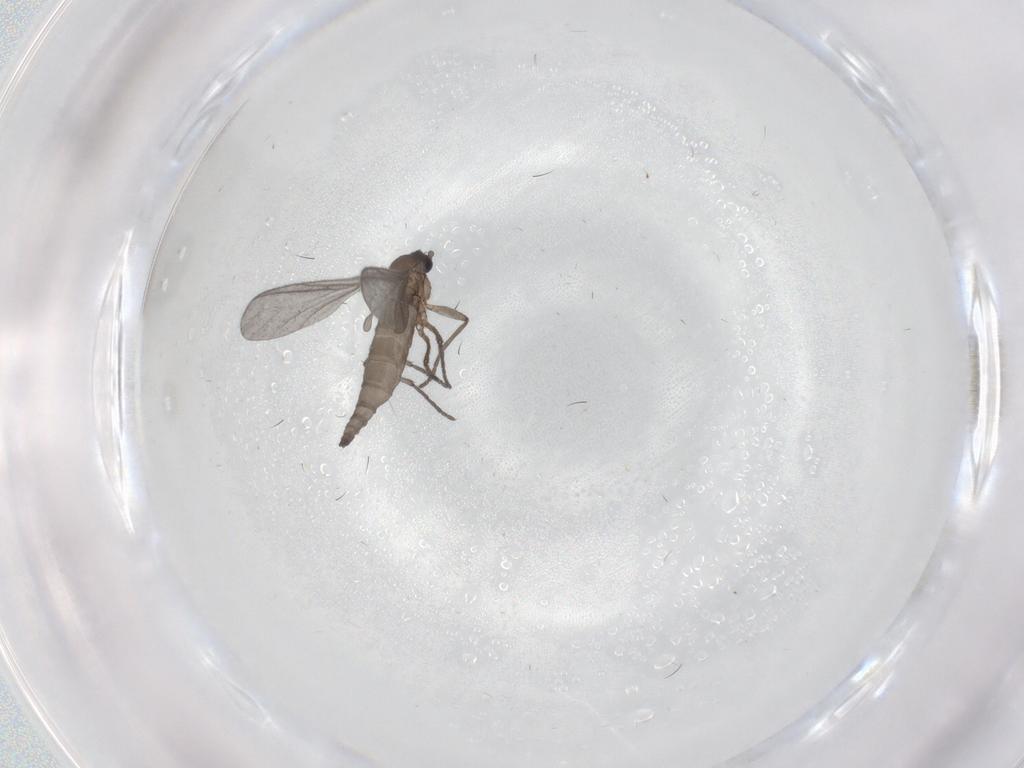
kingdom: Animalia
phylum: Arthropoda
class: Insecta
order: Diptera
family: Sciaridae
